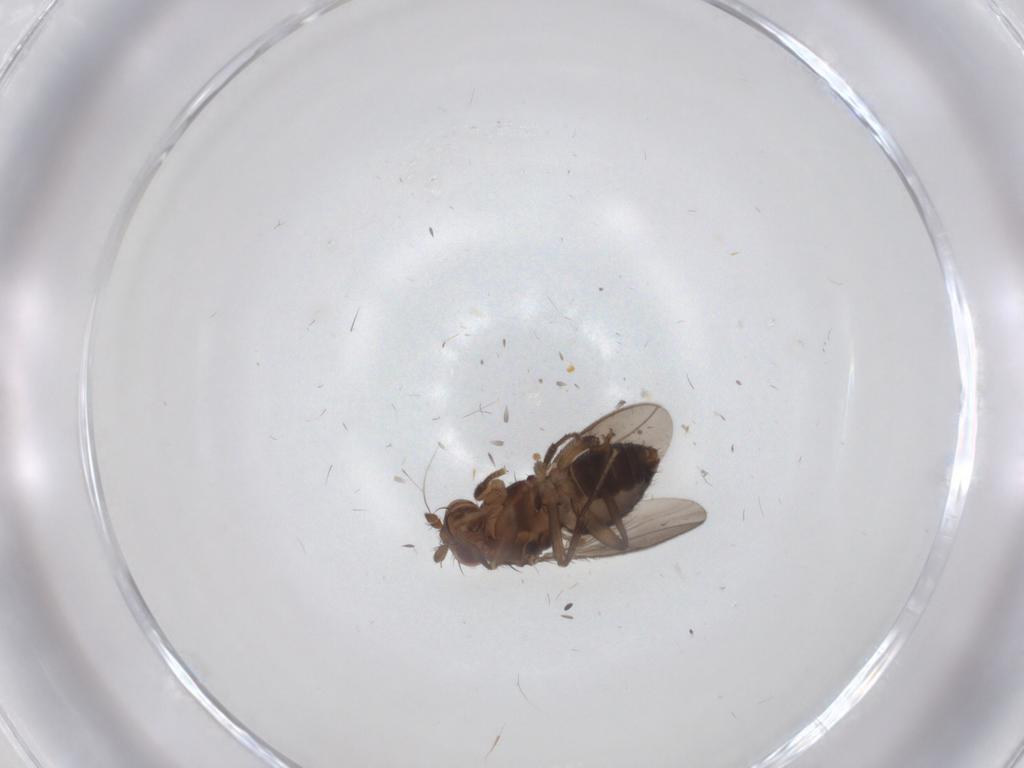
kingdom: Animalia
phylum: Arthropoda
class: Insecta
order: Diptera
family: Sphaeroceridae
